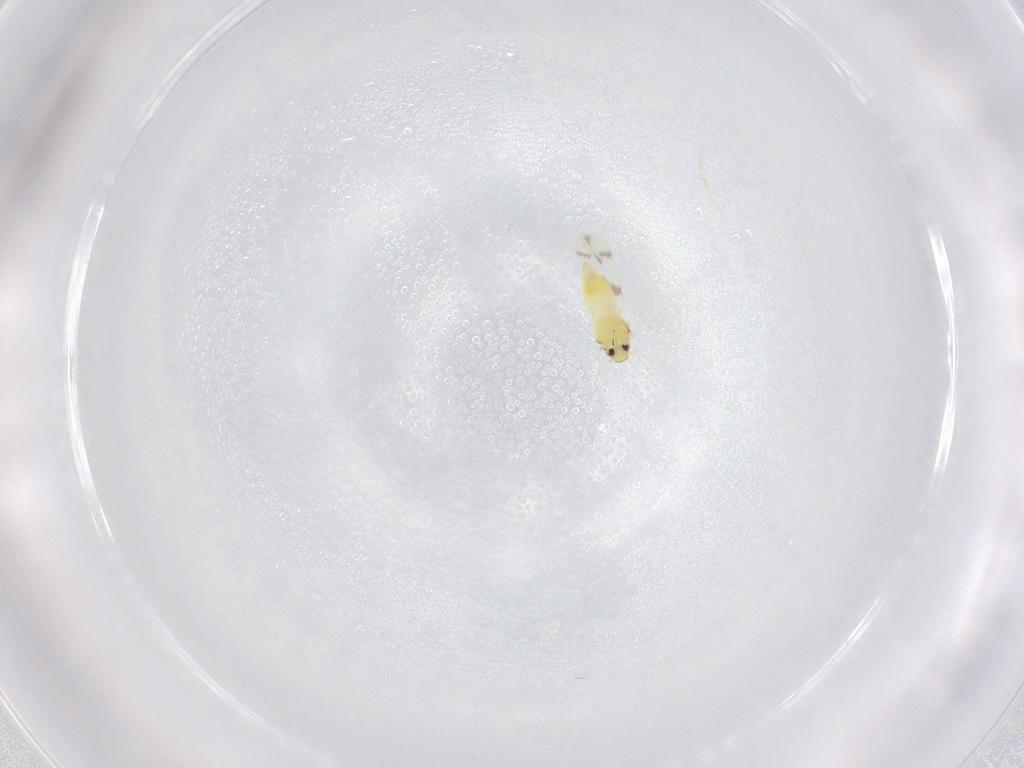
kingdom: Animalia
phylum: Arthropoda
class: Insecta
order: Hemiptera
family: Aleyrodidae
